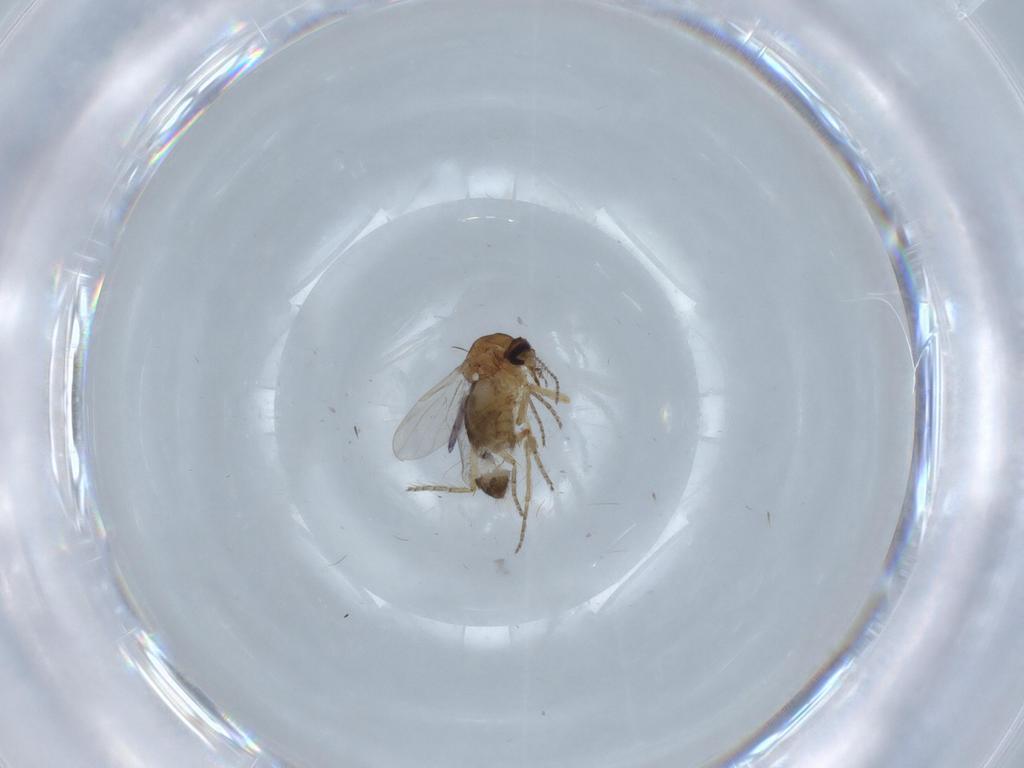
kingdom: Animalia
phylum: Arthropoda
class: Insecta
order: Diptera
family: Ceratopogonidae
